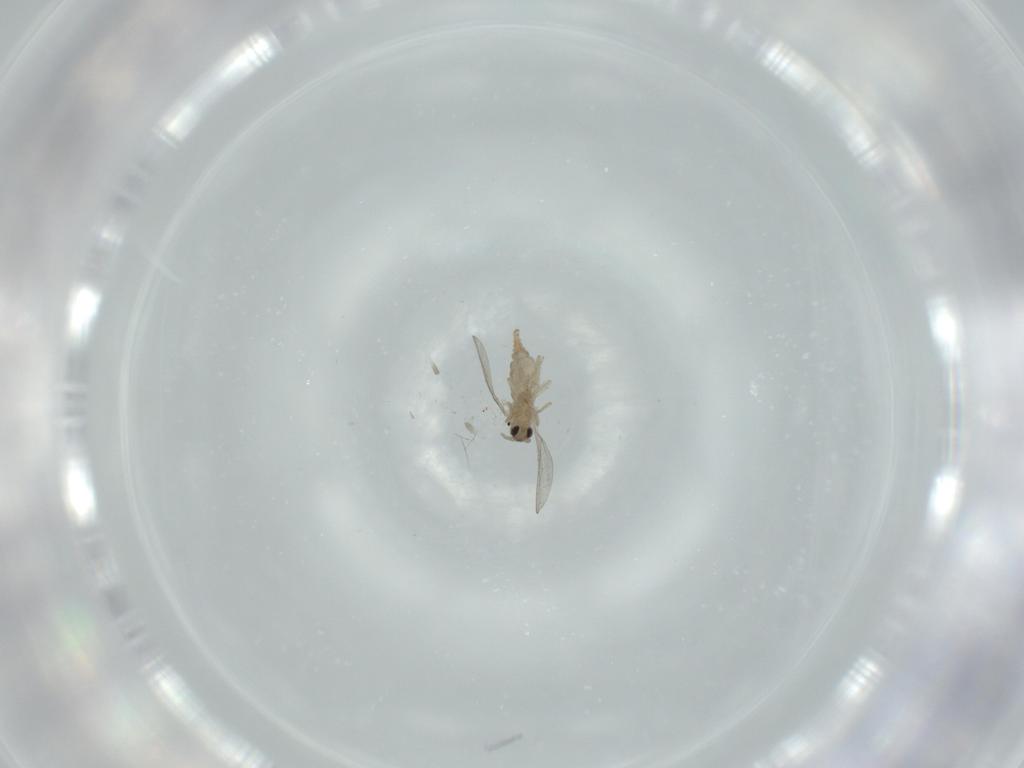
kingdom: Animalia
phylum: Arthropoda
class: Insecta
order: Diptera
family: Cecidomyiidae
